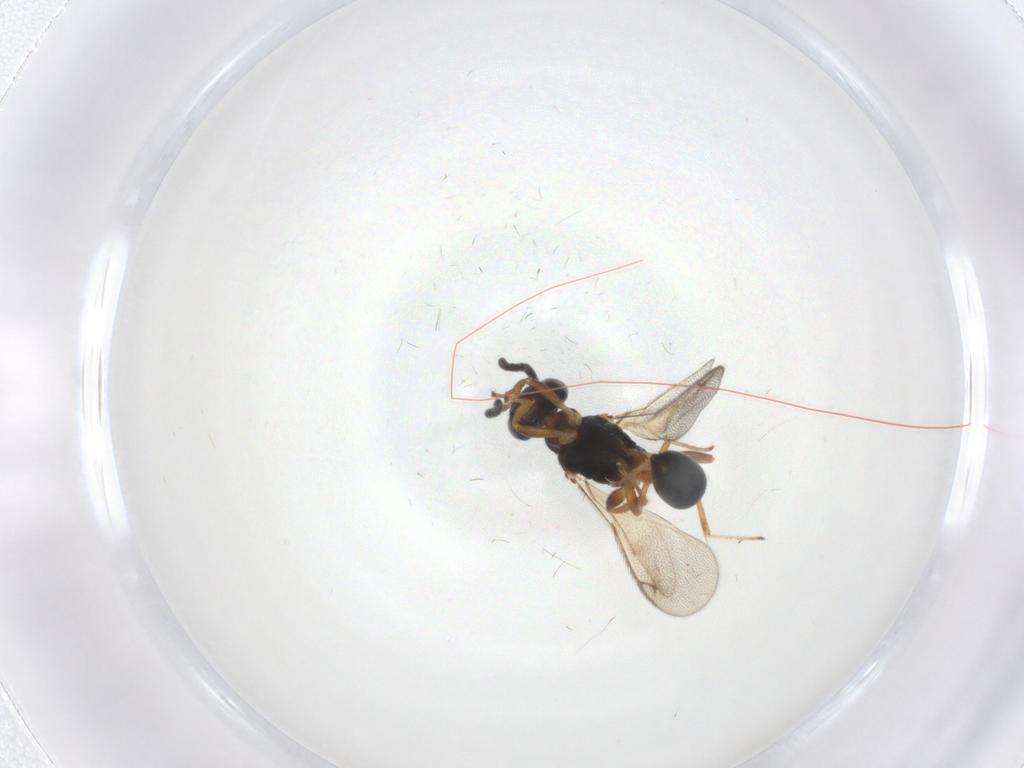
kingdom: Animalia
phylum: Arthropoda
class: Insecta
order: Hymenoptera
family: Diparidae
